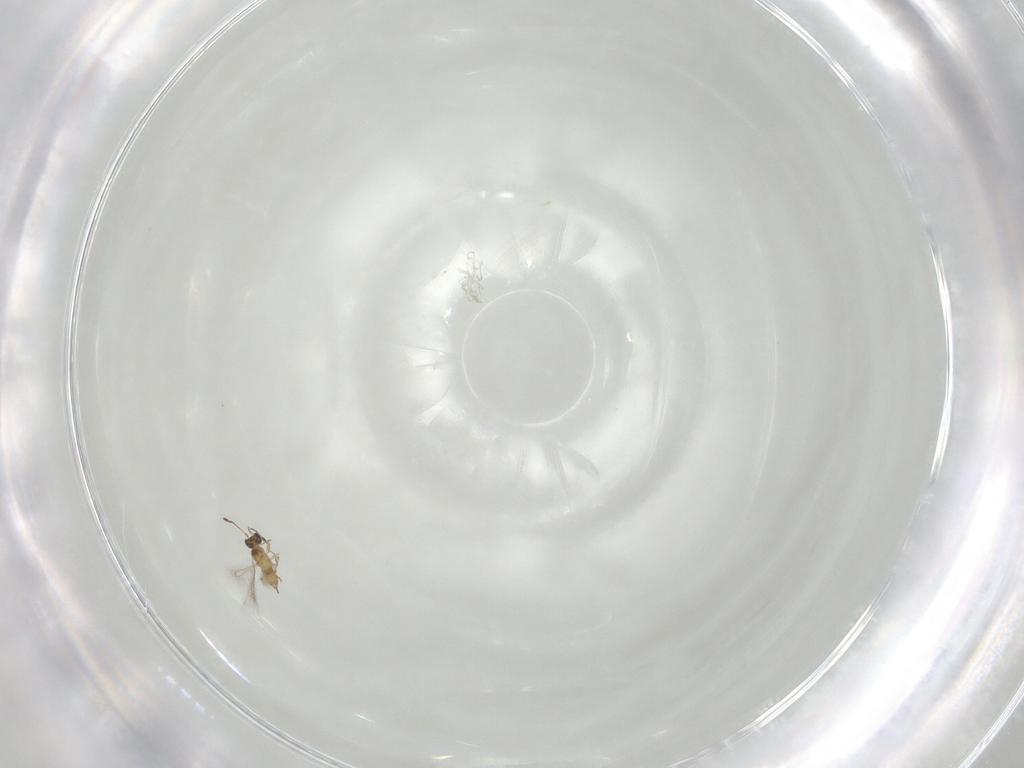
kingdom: Animalia
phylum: Arthropoda
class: Insecta
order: Hymenoptera
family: Mymaridae
